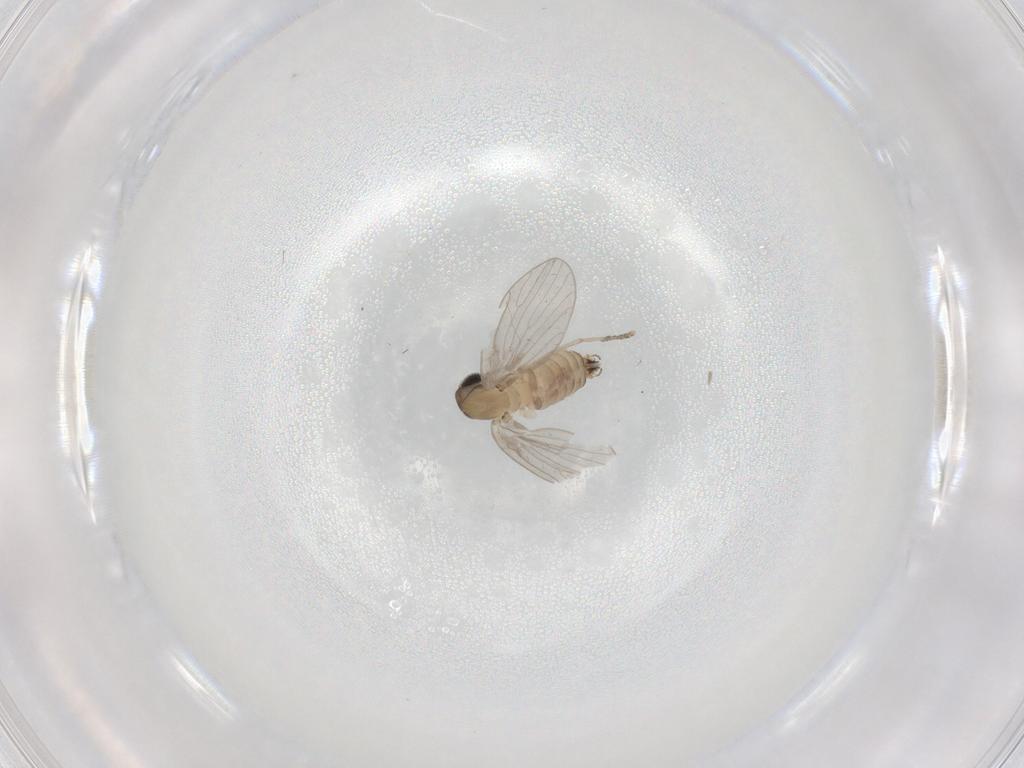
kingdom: Animalia
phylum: Arthropoda
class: Insecta
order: Diptera
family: Psychodidae
